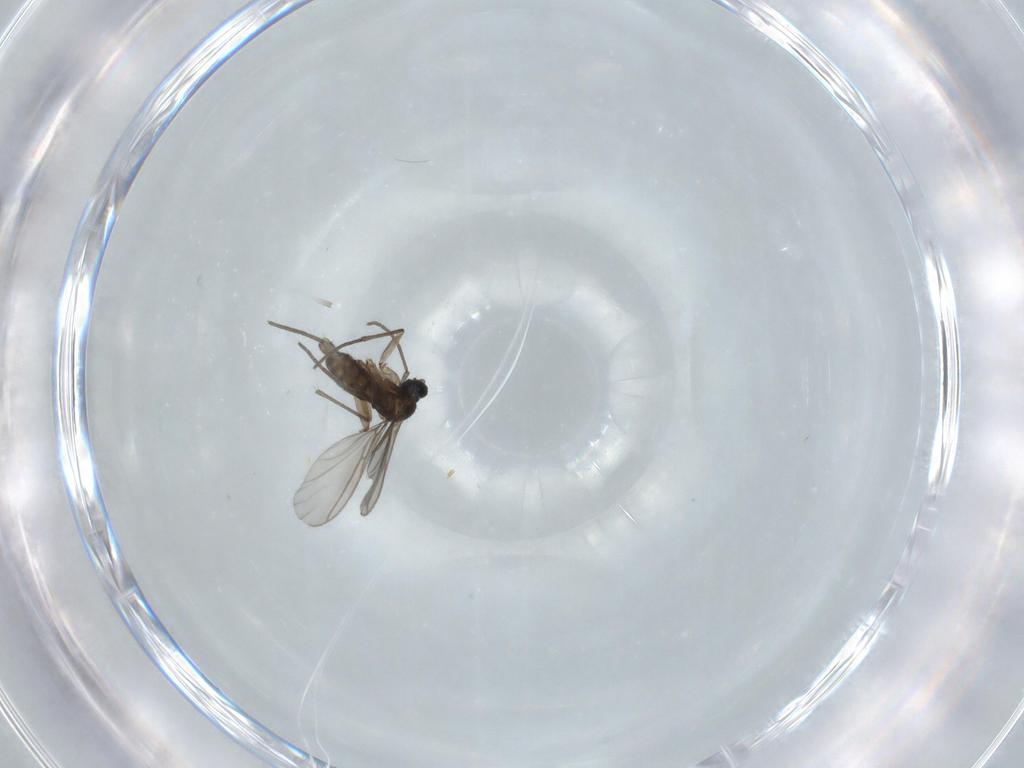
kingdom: Animalia
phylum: Arthropoda
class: Insecta
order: Diptera
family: Sciaridae
